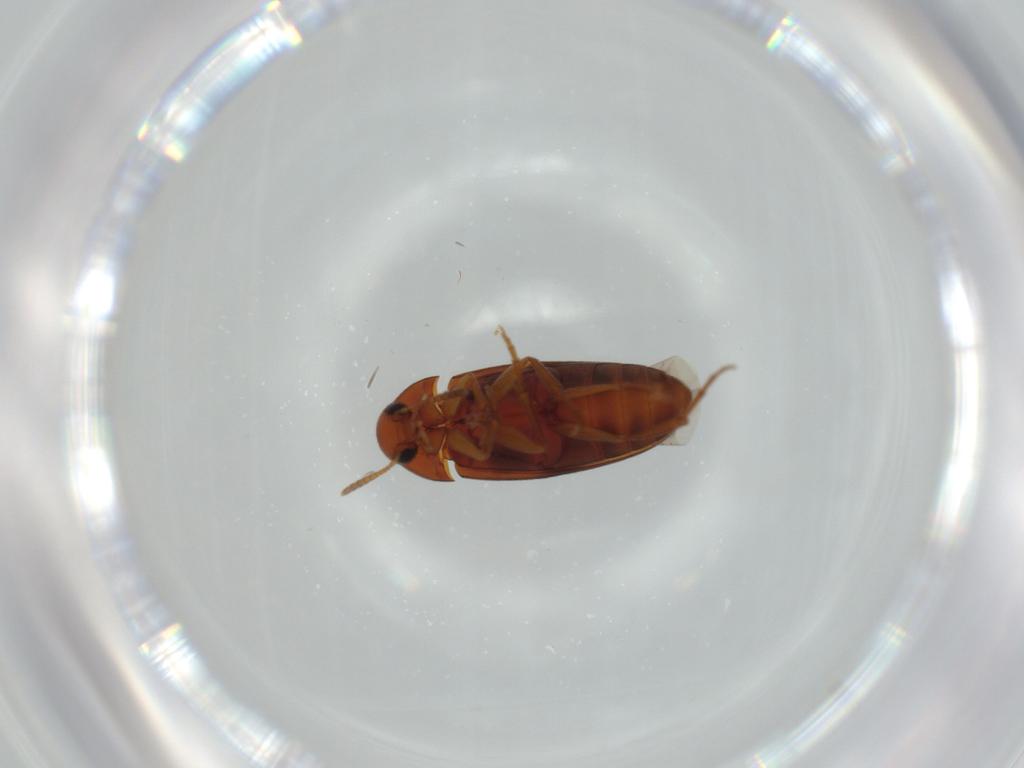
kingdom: Animalia
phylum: Arthropoda
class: Insecta
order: Coleoptera
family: Scraptiidae
